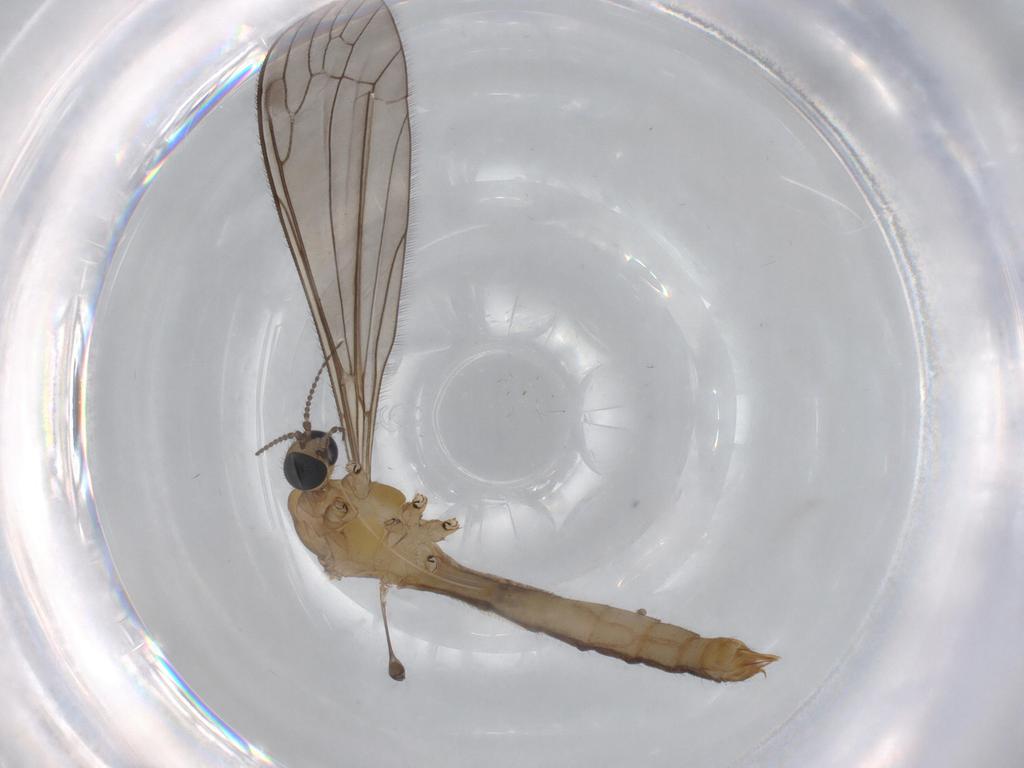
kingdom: Animalia
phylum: Arthropoda
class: Insecta
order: Diptera
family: Limoniidae
